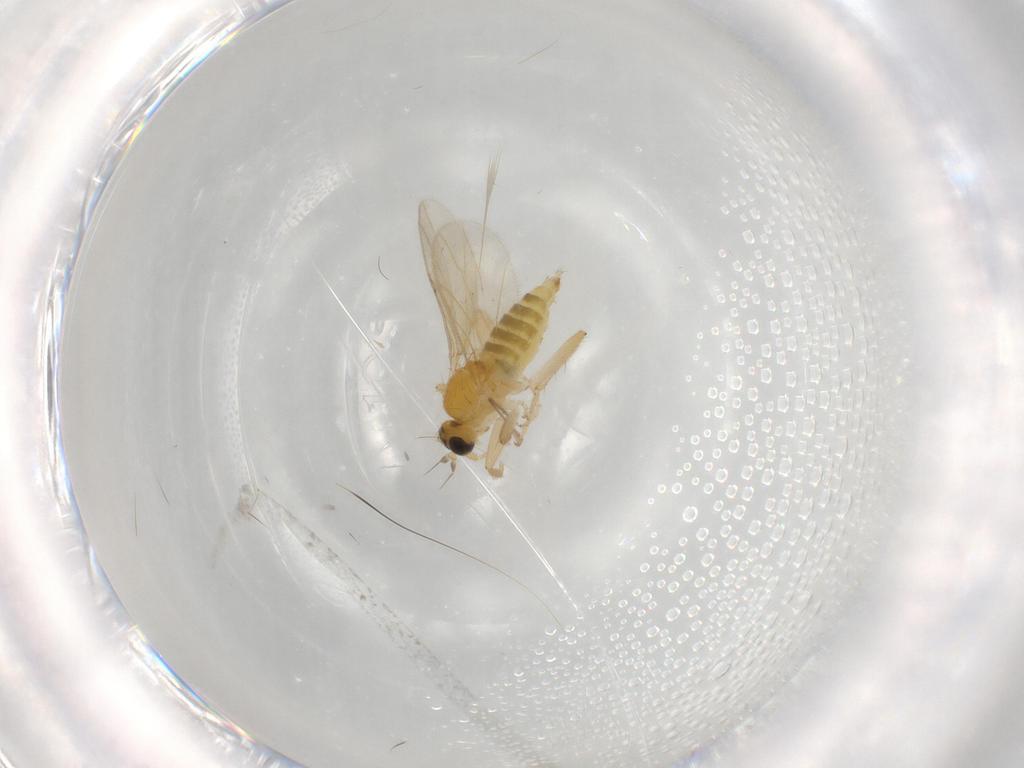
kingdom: Animalia
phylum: Arthropoda
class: Insecta
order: Diptera
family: Hybotidae
